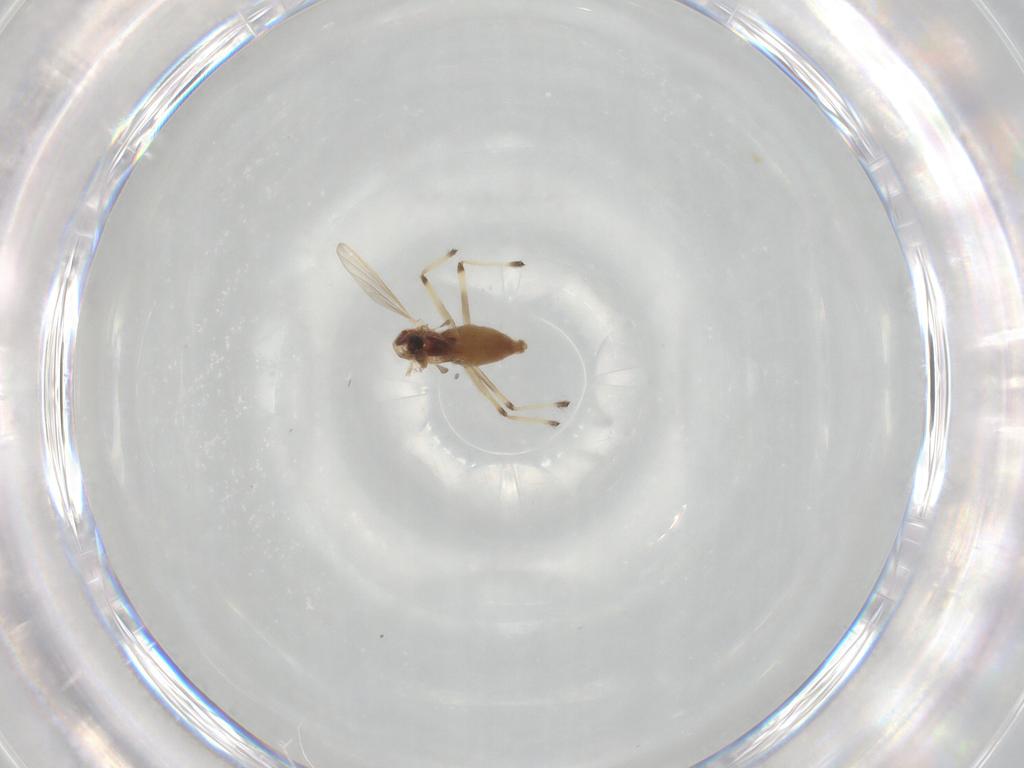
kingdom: Animalia
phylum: Arthropoda
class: Insecta
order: Diptera
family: Chironomidae
